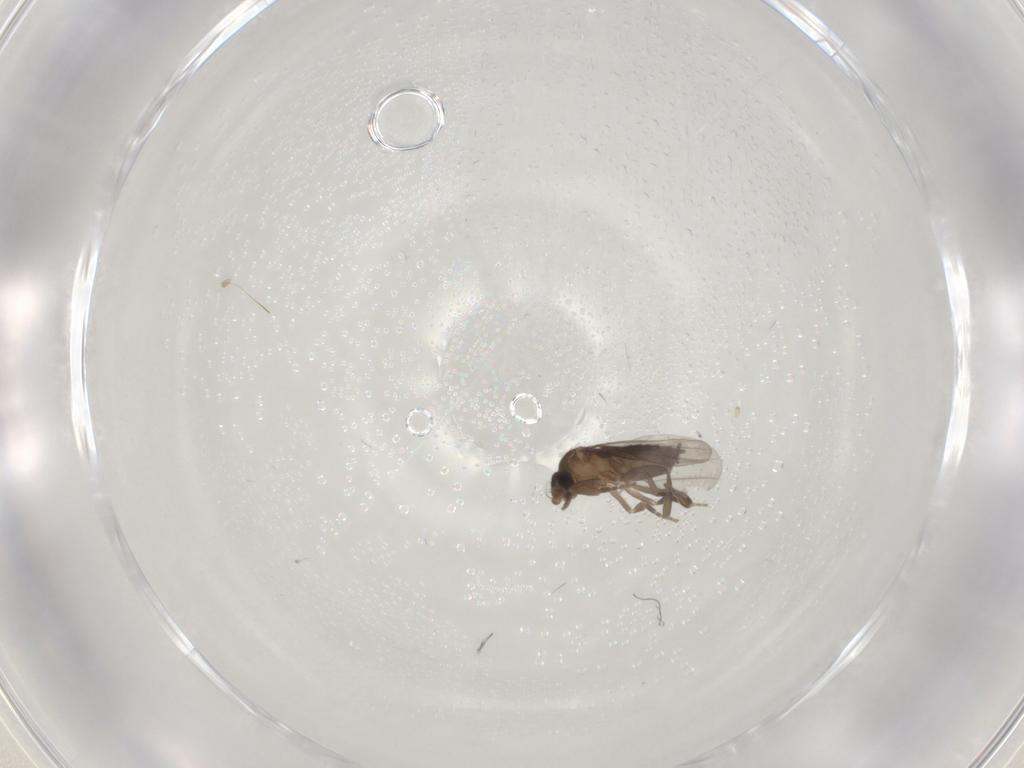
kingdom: Animalia
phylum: Arthropoda
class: Insecta
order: Diptera
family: Phoridae
